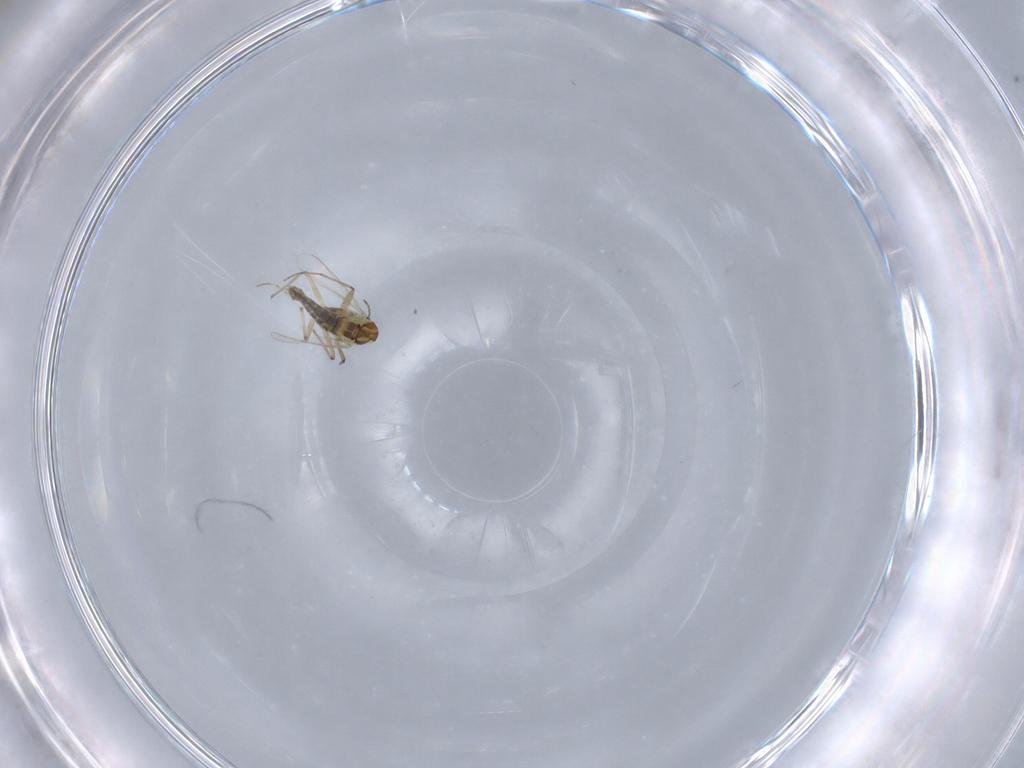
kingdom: Animalia
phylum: Arthropoda
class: Insecta
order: Diptera
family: Chironomidae
